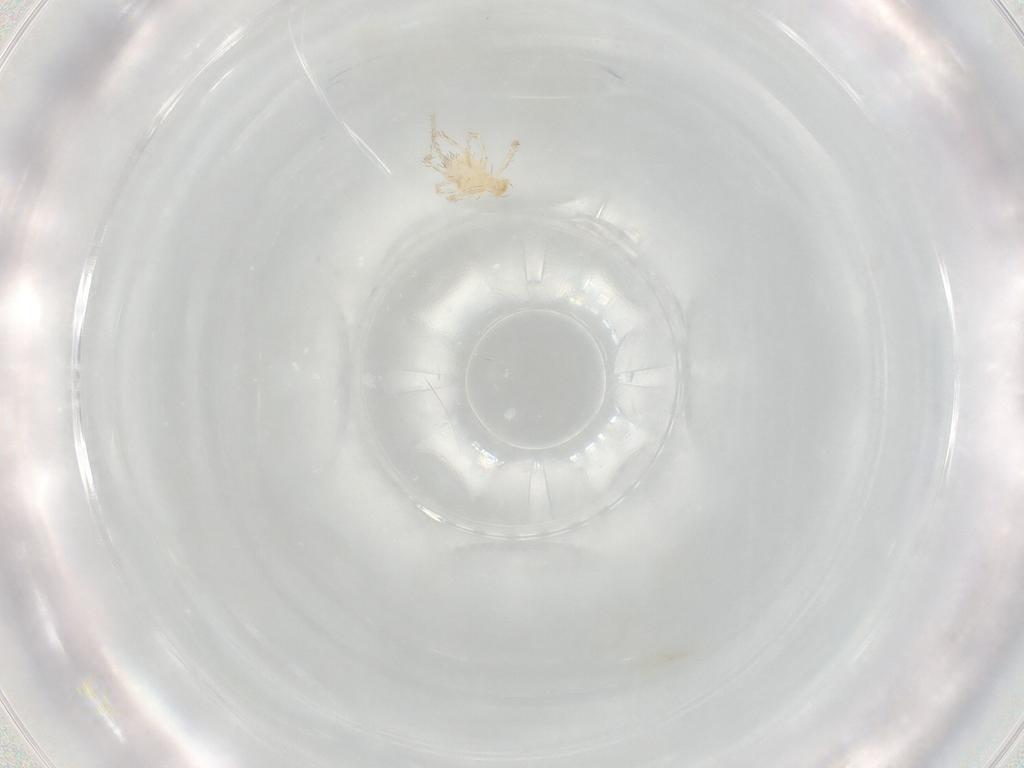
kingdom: Animalia
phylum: Arthropoda
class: Arachnida
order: Trombidiformes
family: Erythraeidae
